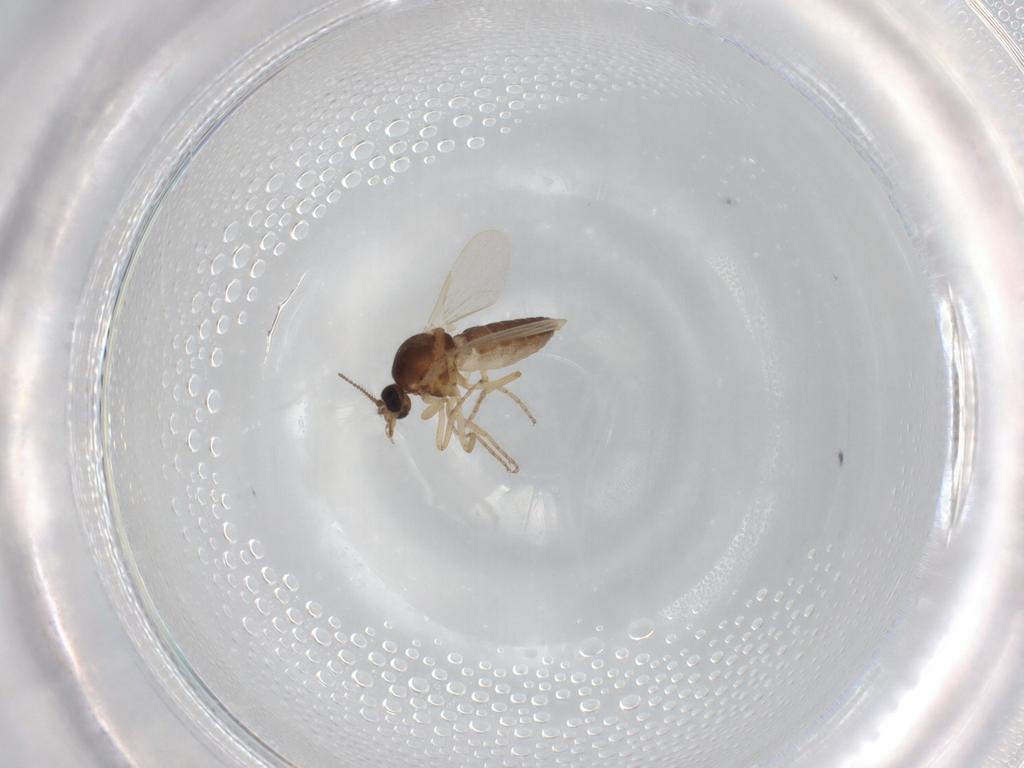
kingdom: Animalia
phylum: Arthropoda
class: Insecta
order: Diptera
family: Ceratopogonidae
